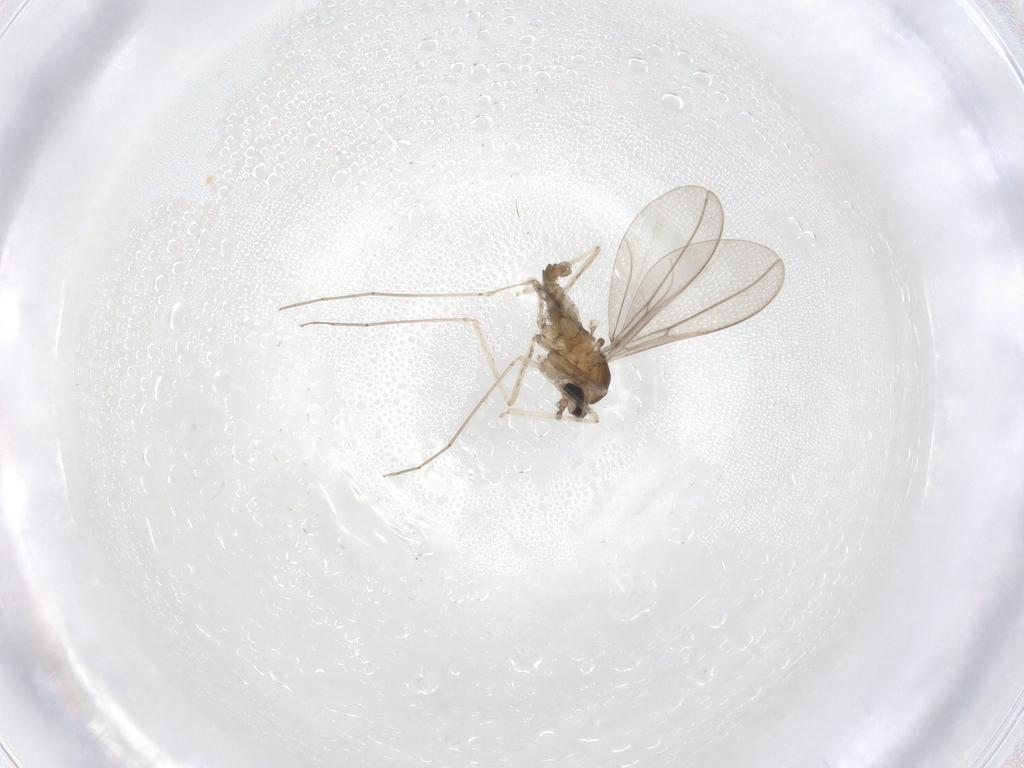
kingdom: Animalia
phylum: Arthropoda
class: Insecta
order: Diptera
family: Cecidomyiidae
